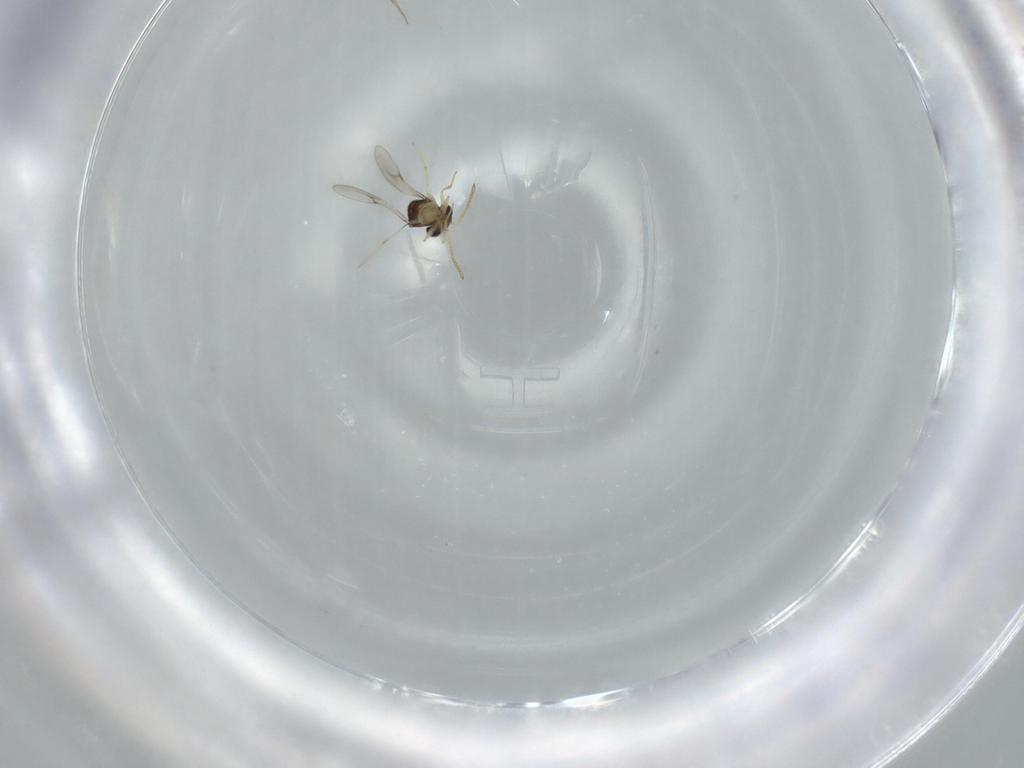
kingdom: Animalia
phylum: Arthropoda
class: Insecta
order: Hymenoptera
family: Scelionidae
